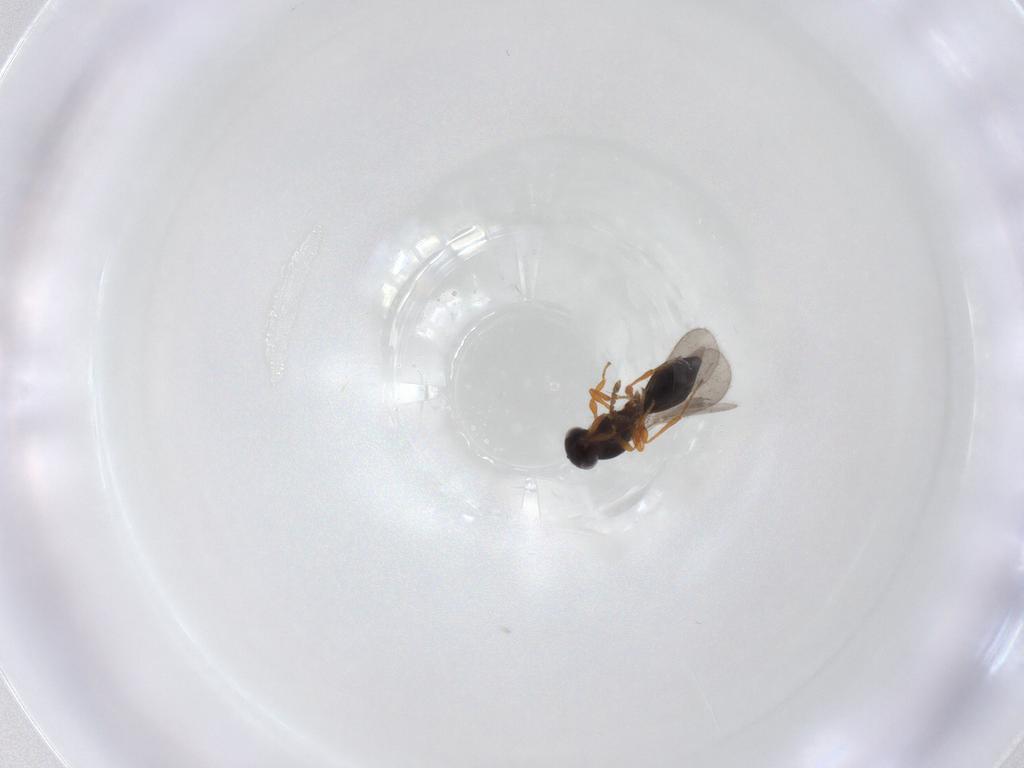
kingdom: Animalia
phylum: Arthropoda
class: Insecta
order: Hymenoptera
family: Platygastridae
